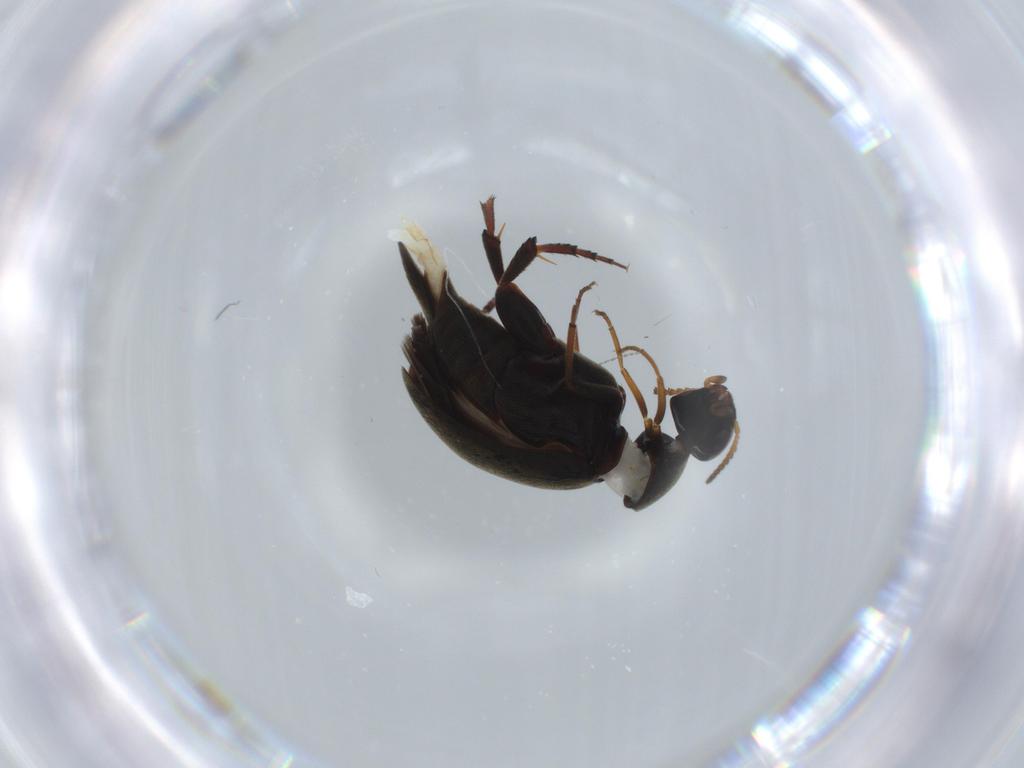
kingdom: Animalia
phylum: Arthropoda
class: Insecta
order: Coleoptera
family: Mordellidae
